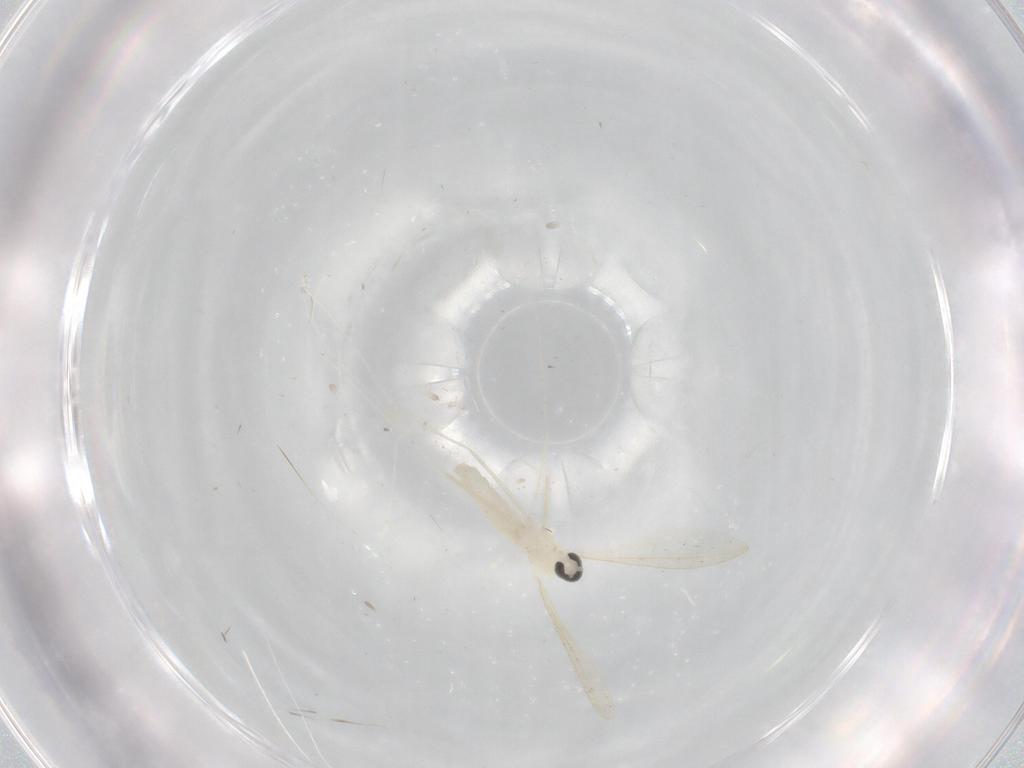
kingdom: Animalia
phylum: Arthropoda
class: Insecta
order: Diptera
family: Cecidomyiidae
